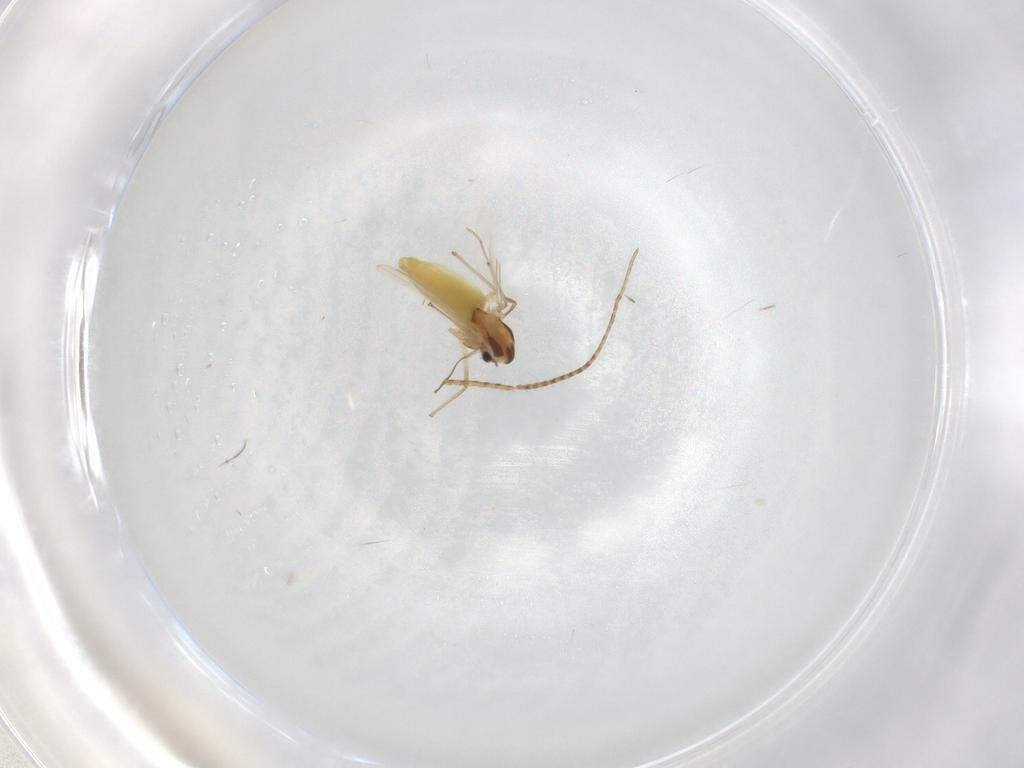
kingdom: Animalia
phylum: Arthropoda
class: Insecta
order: Diptera
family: Chironomidae
